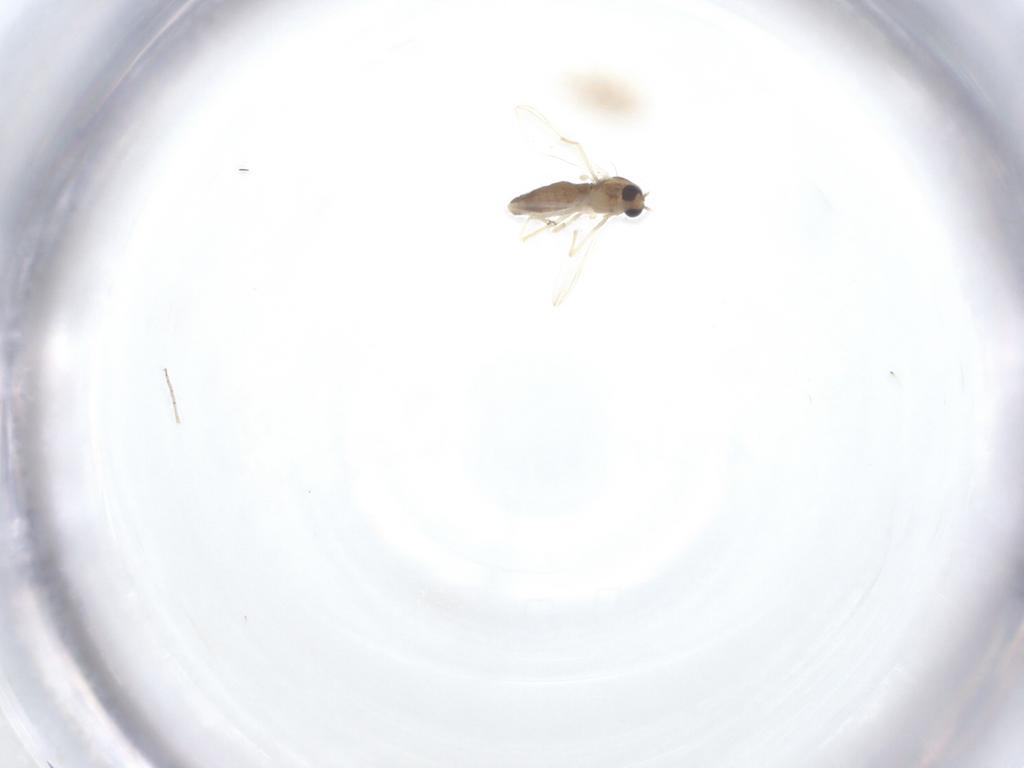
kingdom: Animalia
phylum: Arthropoda
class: Insecta
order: Diptera
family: Chironomidae
